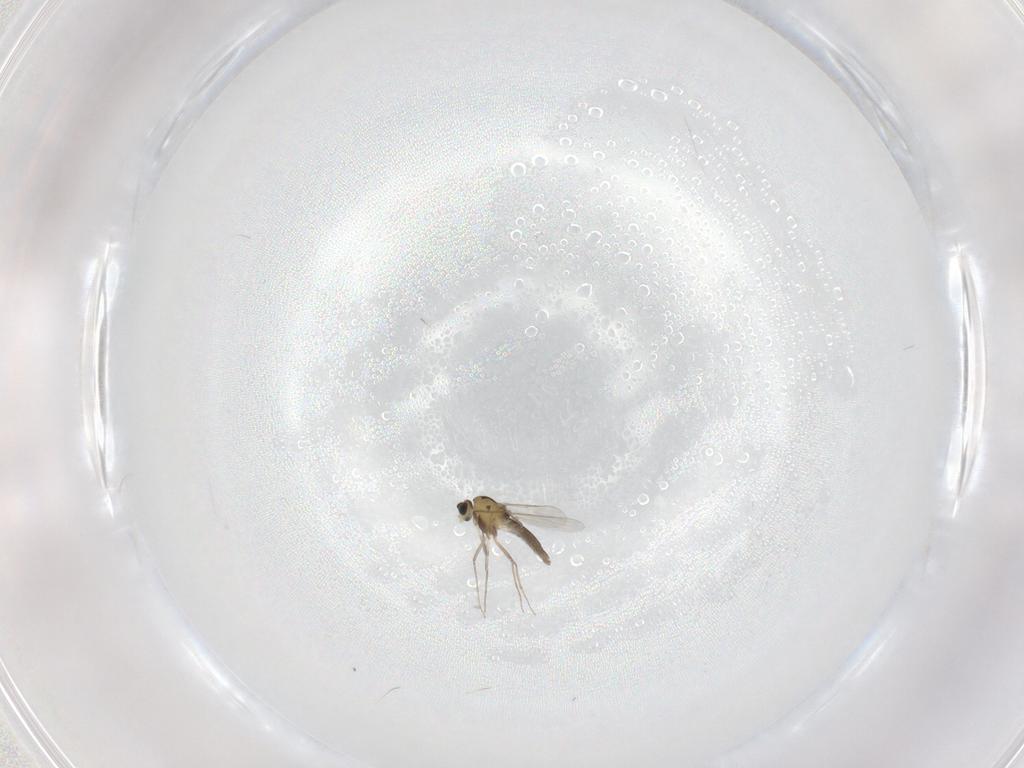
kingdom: Animalia
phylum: Arthropoda
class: Insecta
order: Diptera
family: Chironomidae
